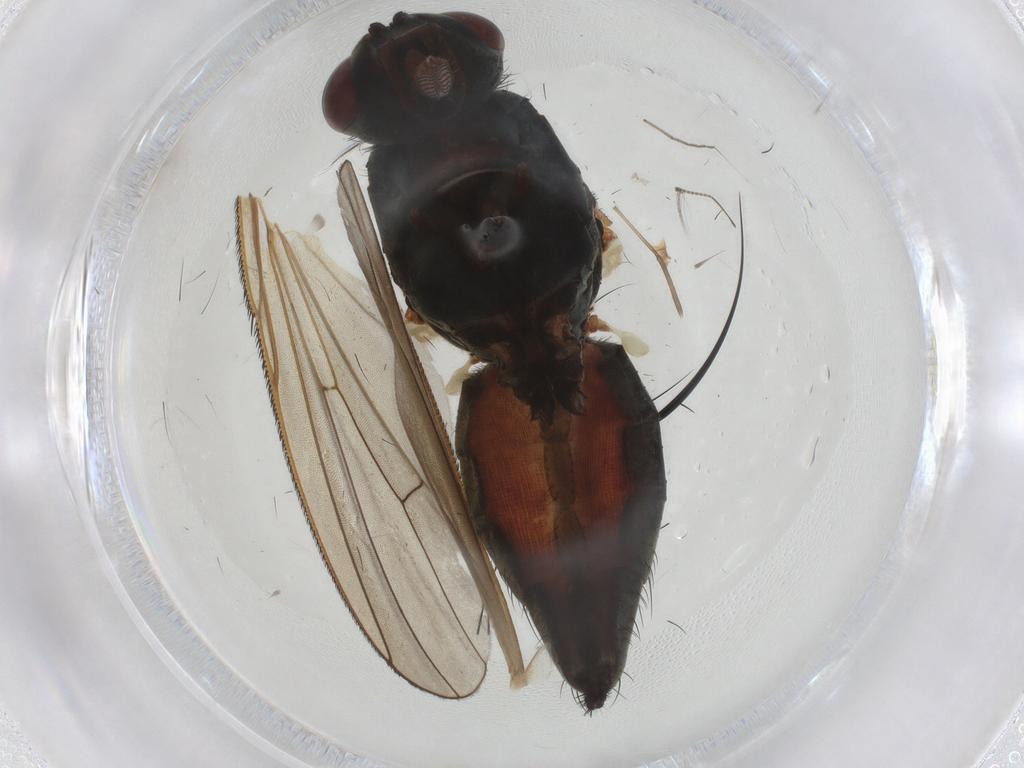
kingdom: Animalia
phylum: Arthropoda
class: Insecta
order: Diptera
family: Anthomyiidae
